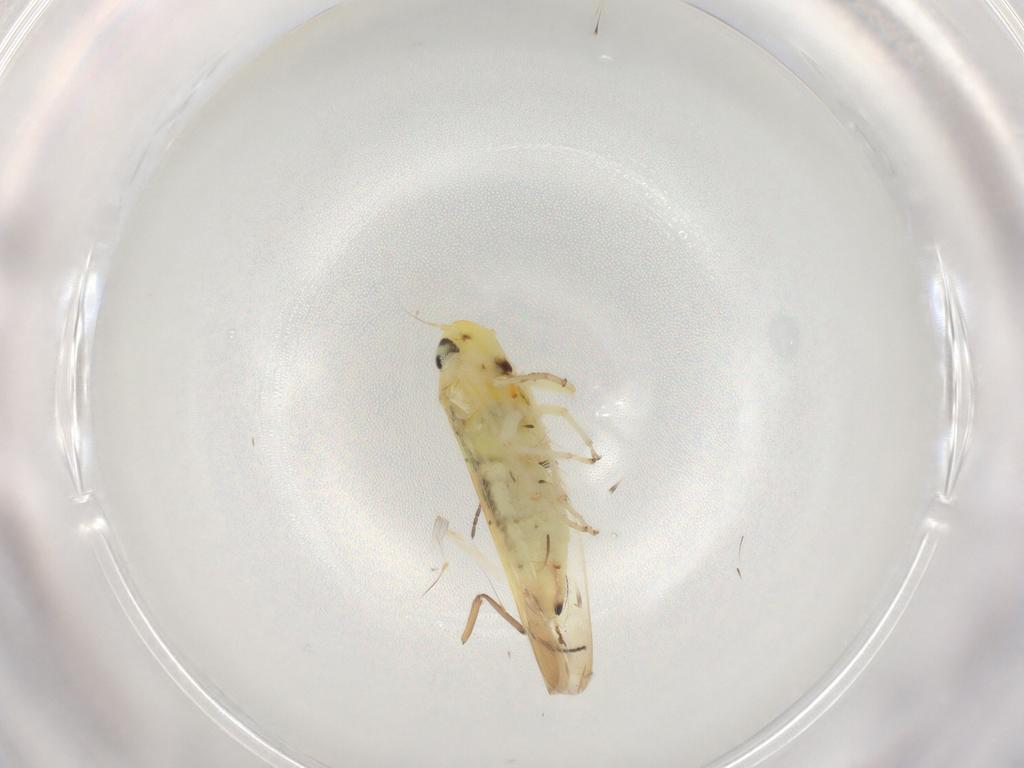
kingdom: Animalia
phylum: Arthropoda
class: Insecta
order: Hemiptera
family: Cicadellidae
